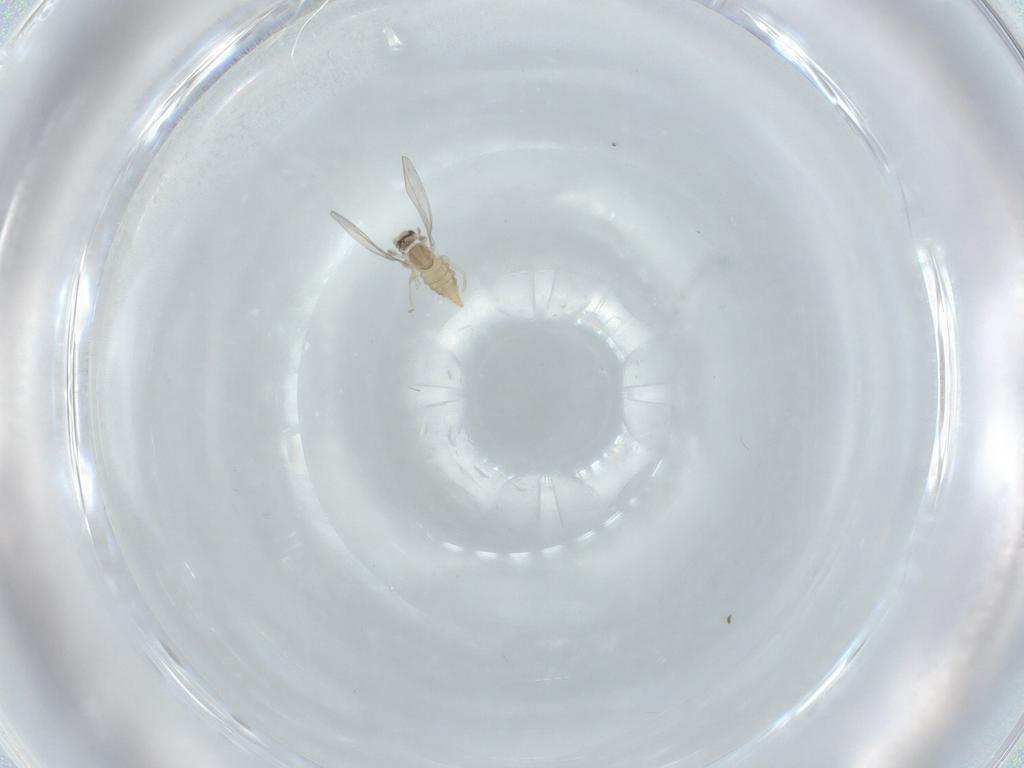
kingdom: Animalia
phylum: Arthropoda
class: Insecta
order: Diptera
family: Cecidomyiidae
